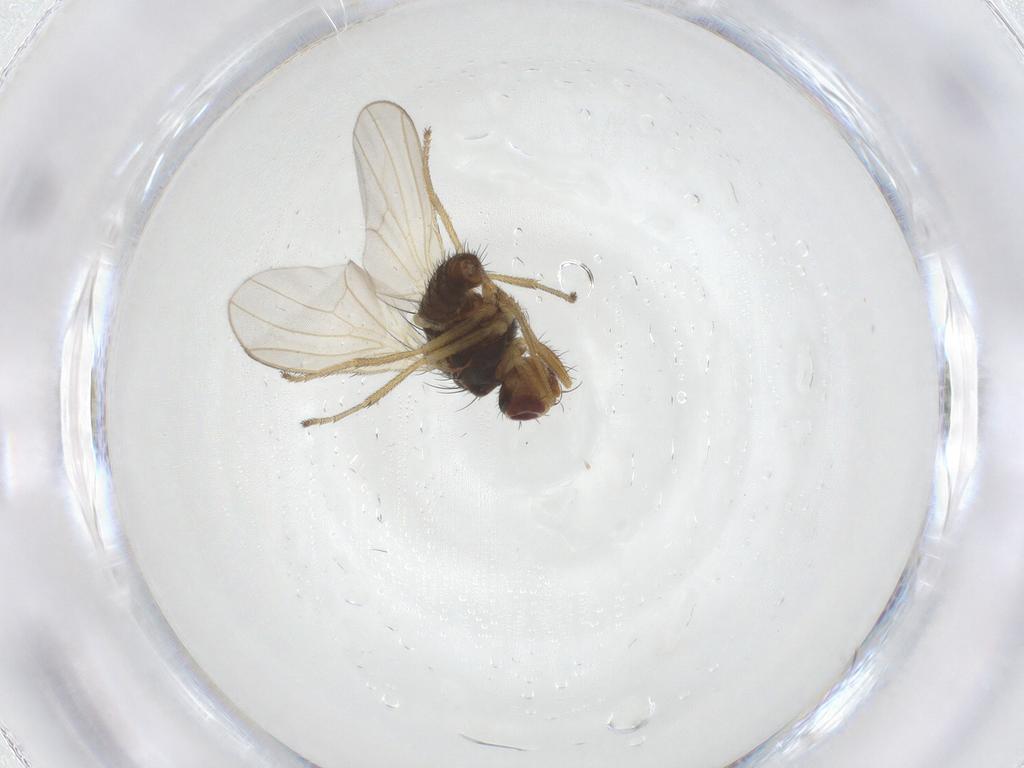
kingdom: Animalia
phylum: Arthropoda
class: Insecta
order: Diptera
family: Heleomyzidae
